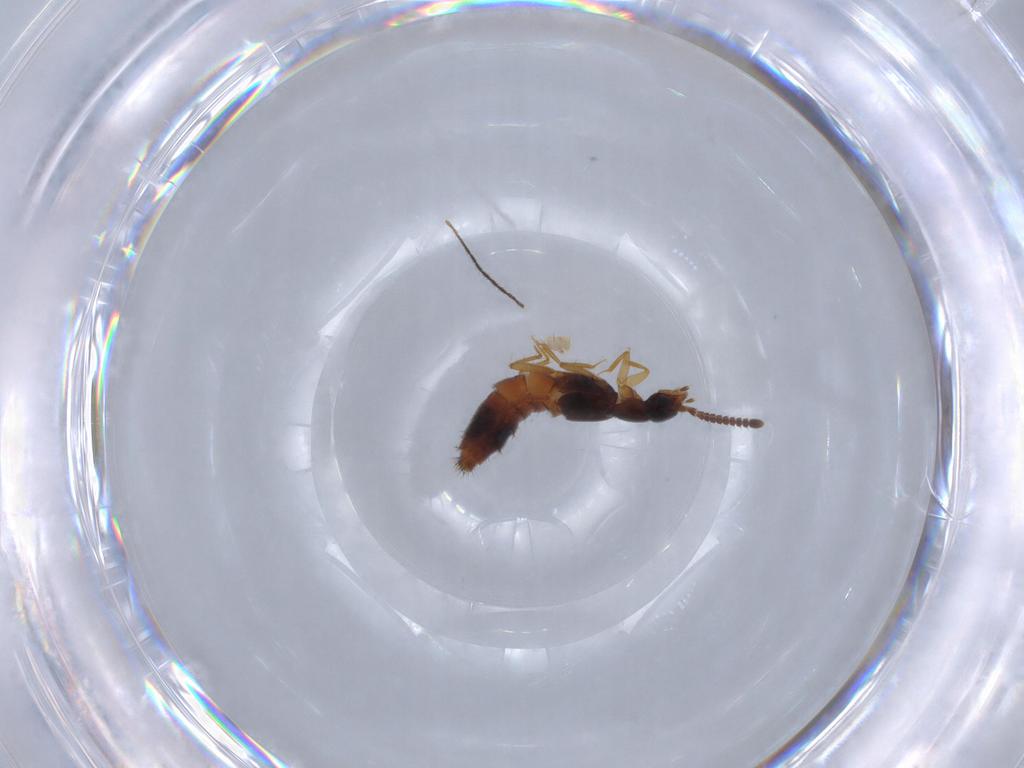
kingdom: Animalia
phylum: Arthropoda
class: Insecta
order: Coleoptera
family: Staphylinidae
